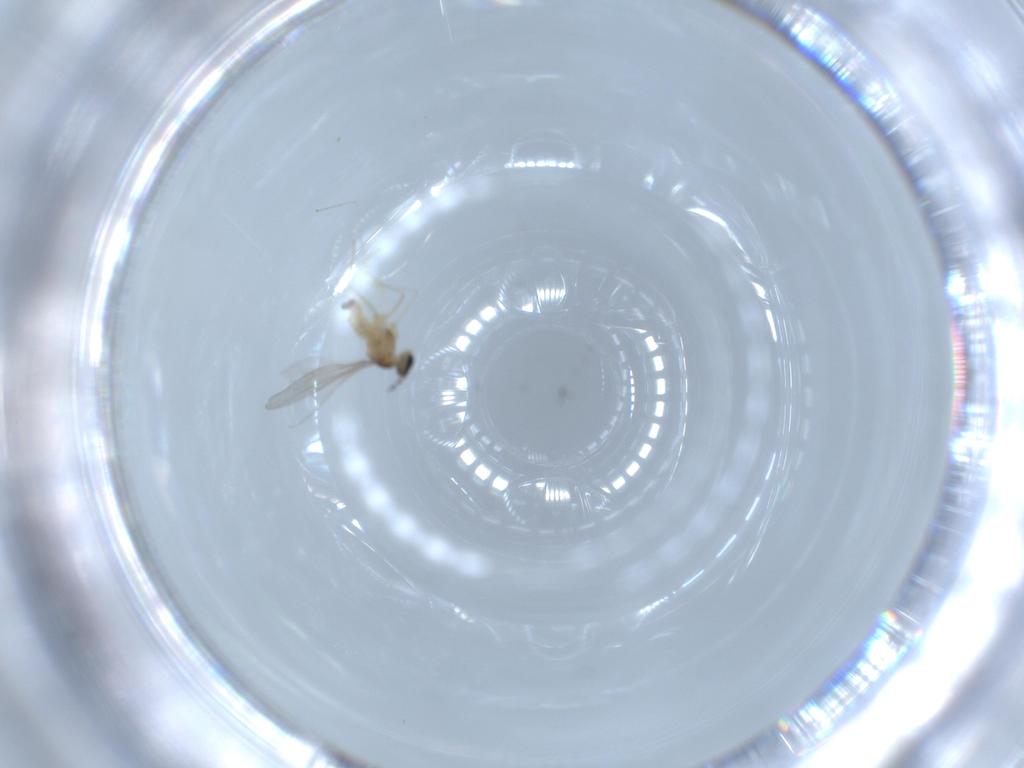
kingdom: Animalia
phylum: Arthropoda
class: Insecta
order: Diptera
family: Cecidomyiidae
